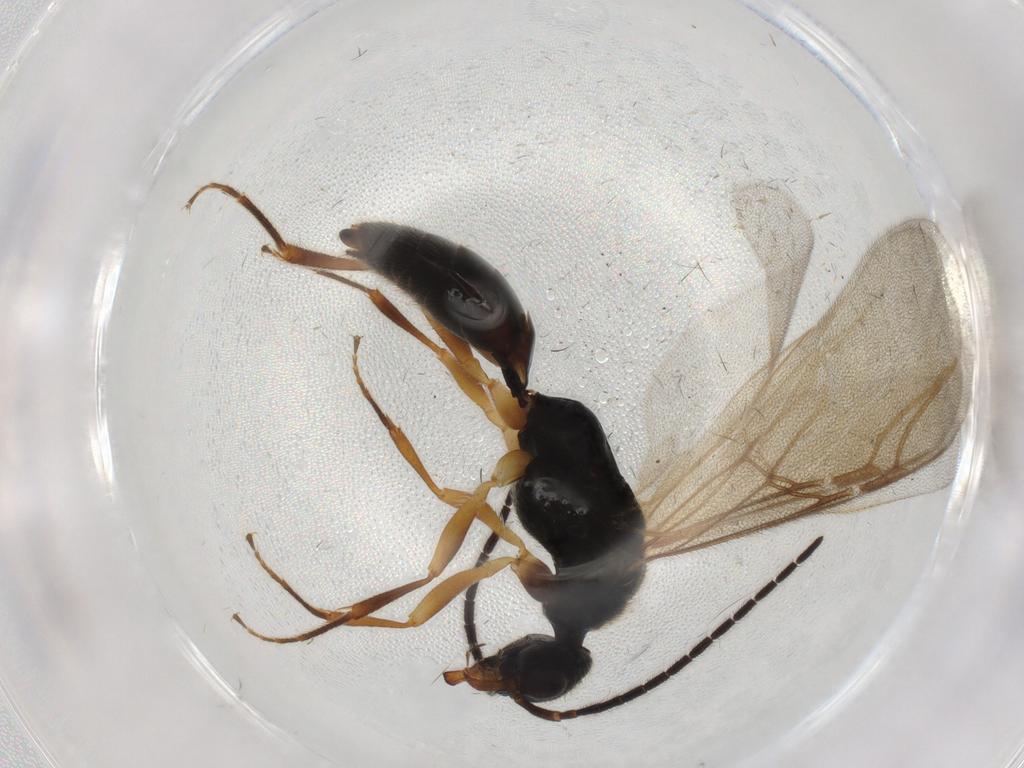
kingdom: Animalia
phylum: Arthropoda
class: Insecta
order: Hymenoptera
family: Bethylidae
